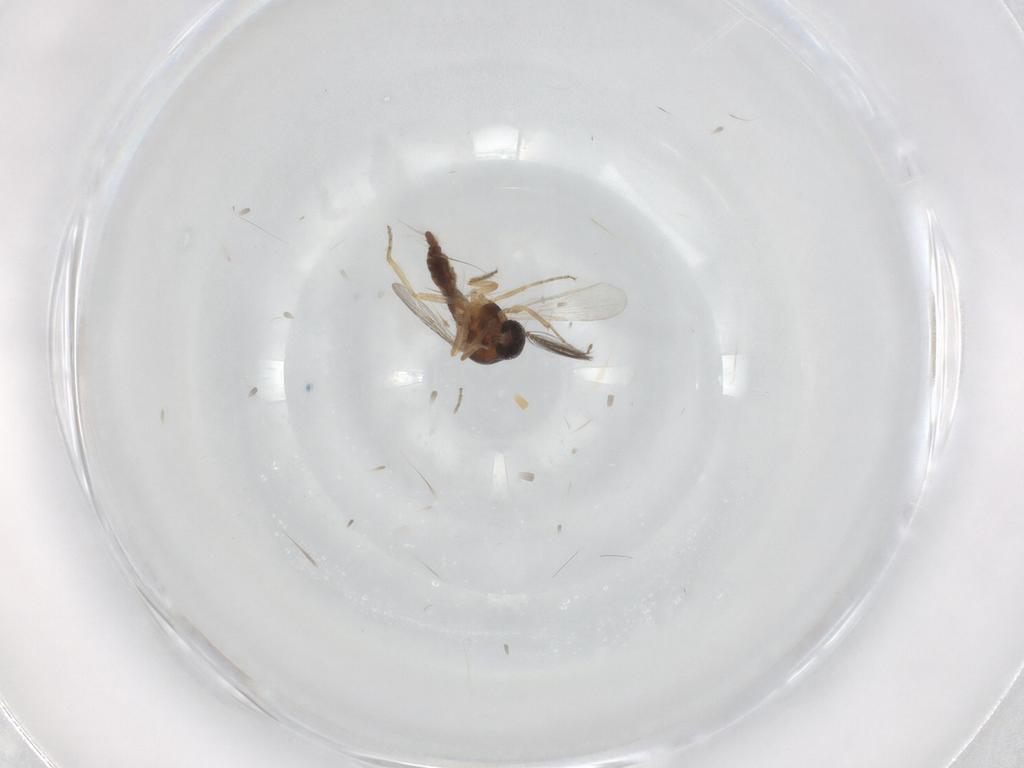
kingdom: Animalia
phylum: Arthropoda
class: Insecta
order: Diptera
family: Ceratopogonidae
